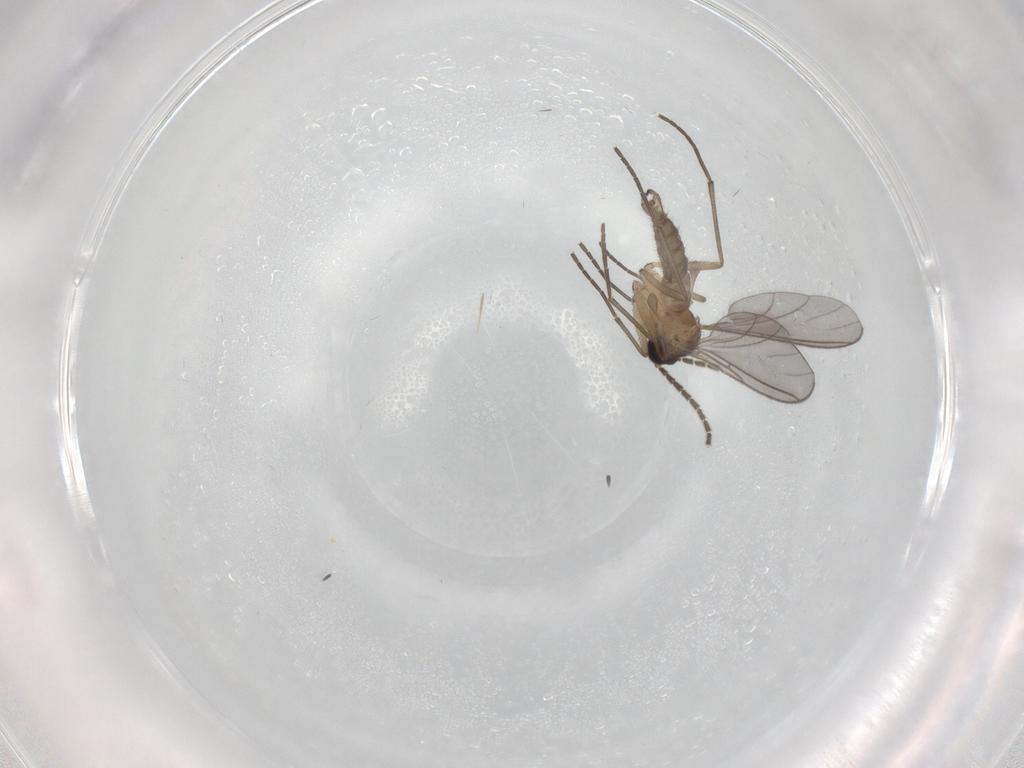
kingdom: Animalia
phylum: Arthropoda
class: Insecta
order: Diptera
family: Sciaridae
